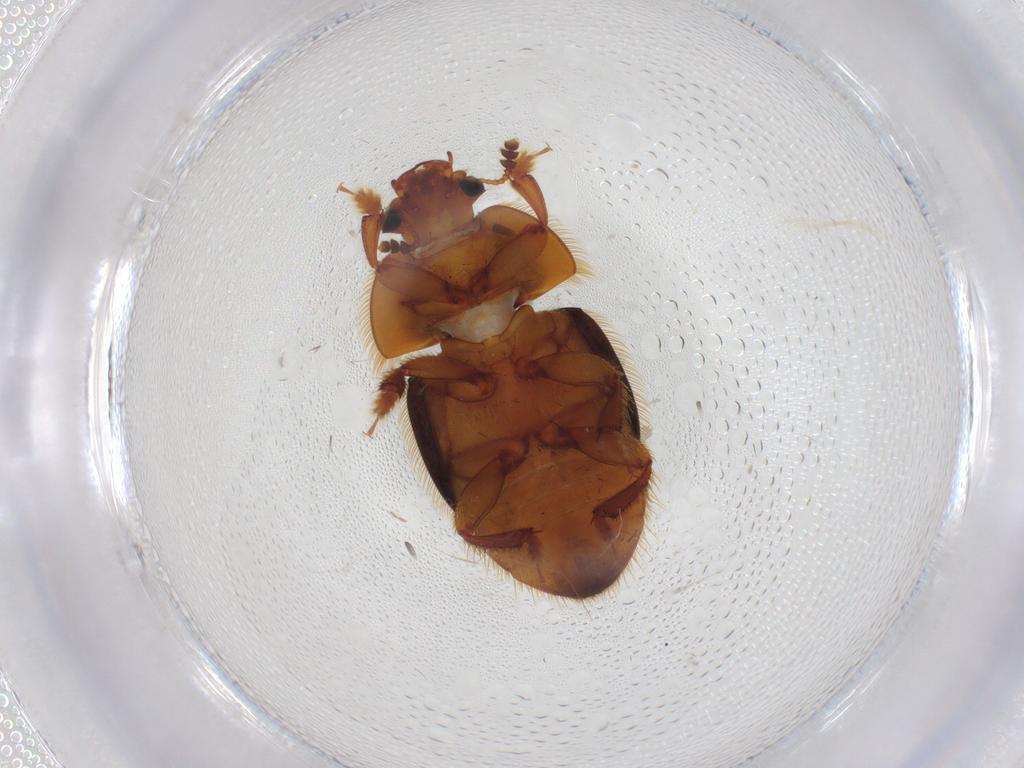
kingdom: Animalia
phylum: Arthropoda
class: Insecta
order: Coleoptera
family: Nitidulidae
